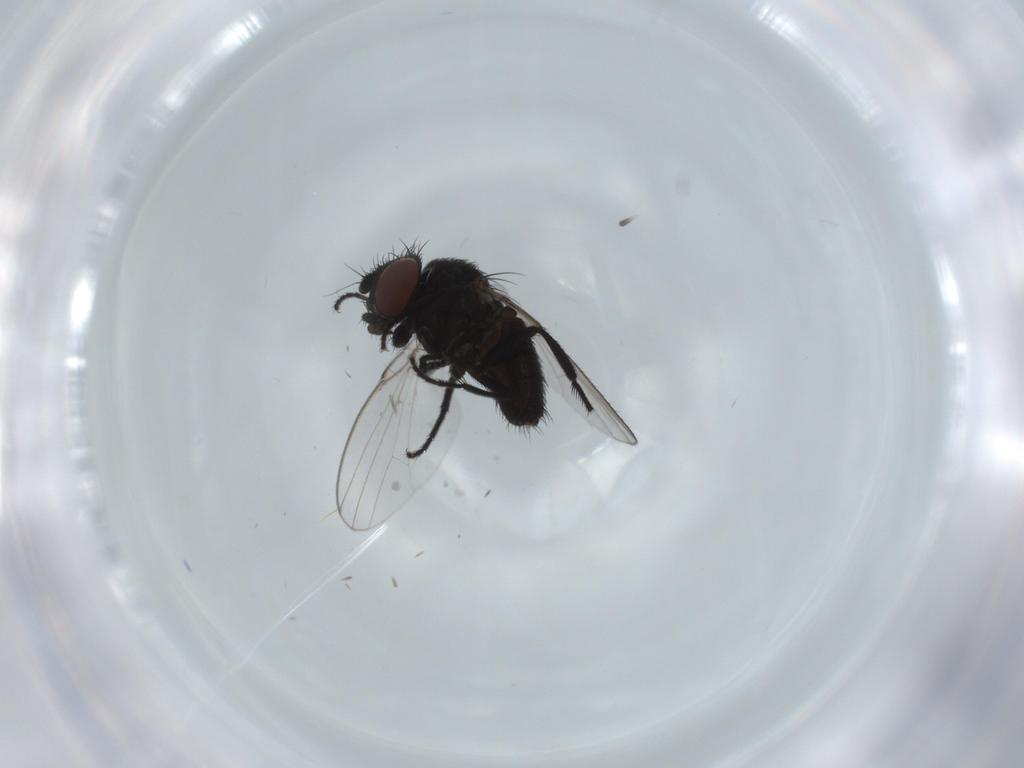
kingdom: Animalia
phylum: Arthropoda
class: Insecta
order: Diptera
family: Milichiidae
